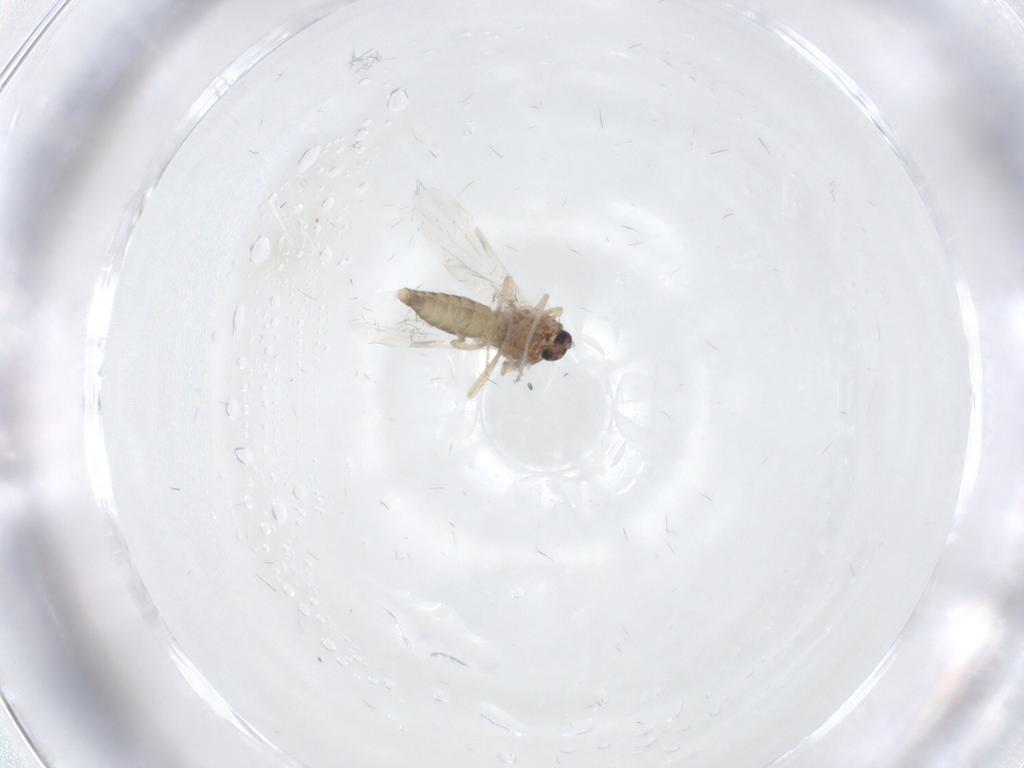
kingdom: Animalia
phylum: Arthropoda
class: Insecta
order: Diptera
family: Ceratopogonidae
